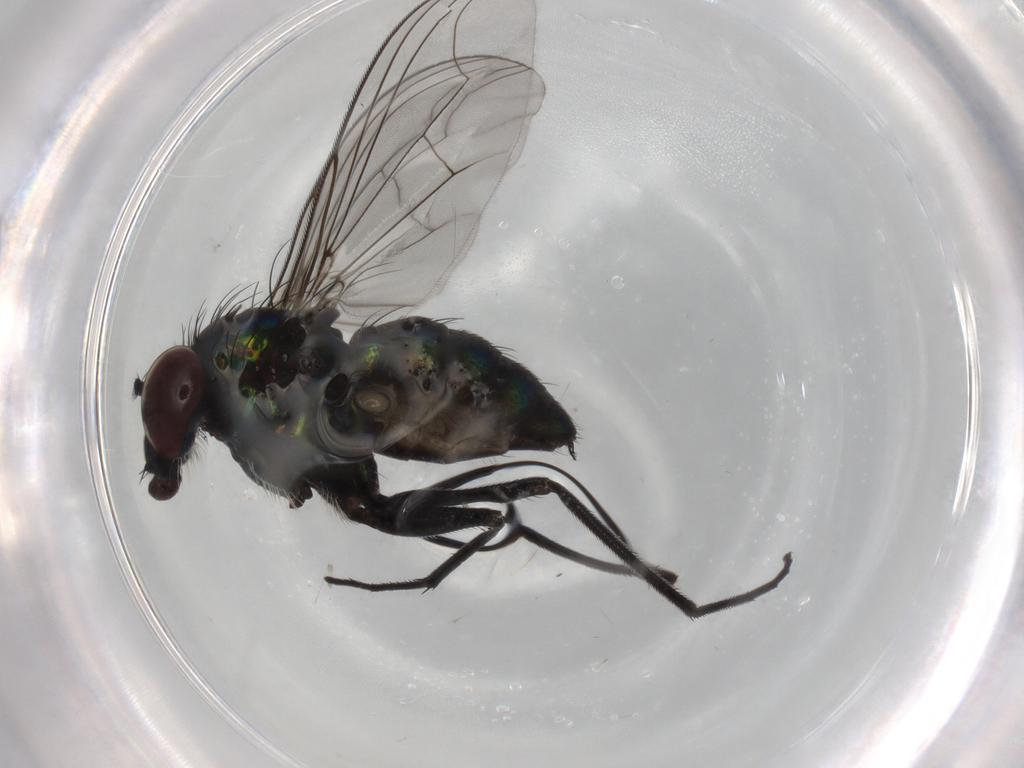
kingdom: Animalia
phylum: Arthropoda
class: Insecta
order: Diptera
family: Dolichopodidae
